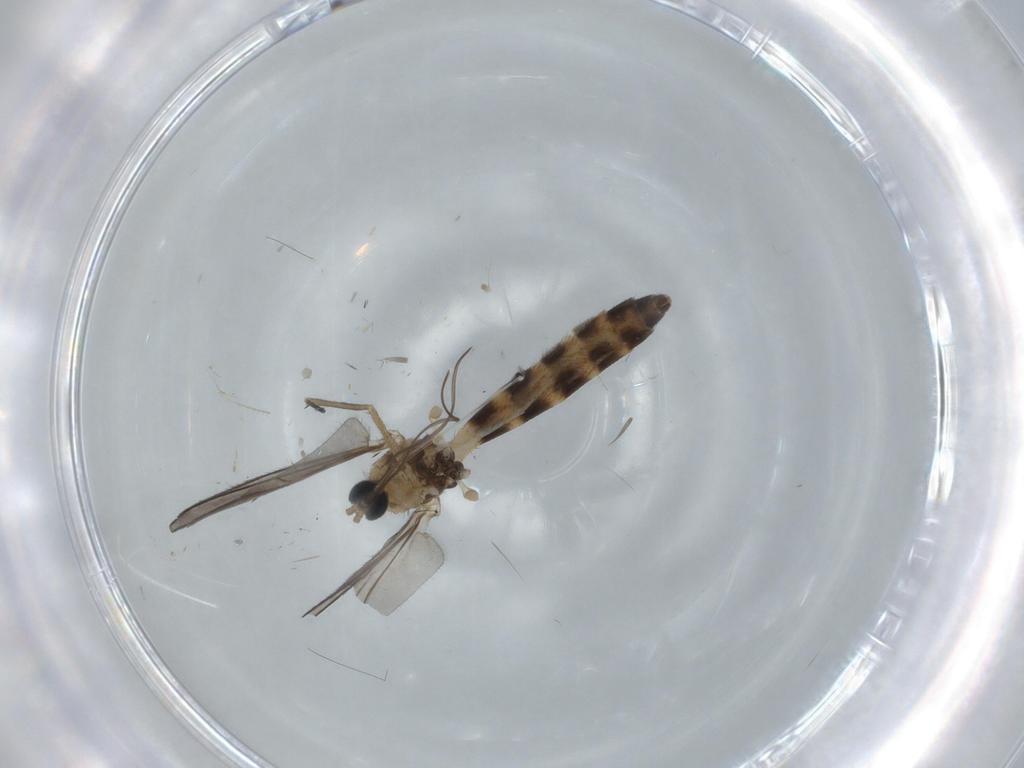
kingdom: Animalia
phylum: Arthropoda
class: Insecta
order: Diptera
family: Keroplatidae
